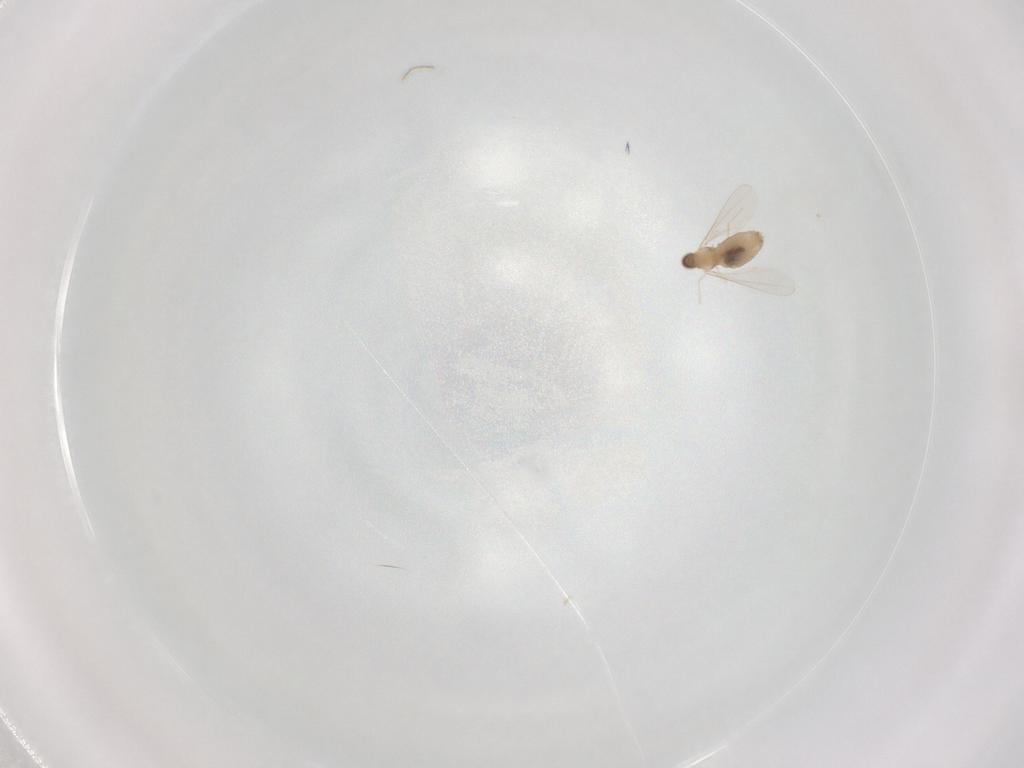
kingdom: Animalia
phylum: Arthropoda
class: Insecta
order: Diptera
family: Cecidomyiidae
